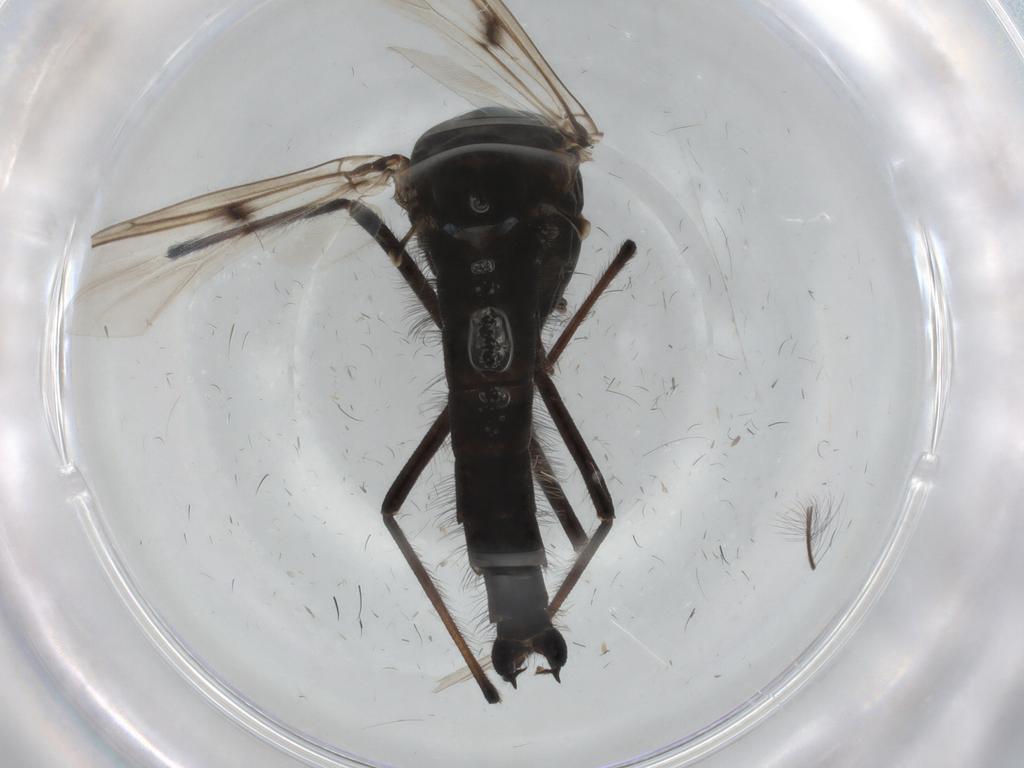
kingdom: Animalia
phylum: Arthropoda
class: Insecta
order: Diptera
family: Chironomidae
